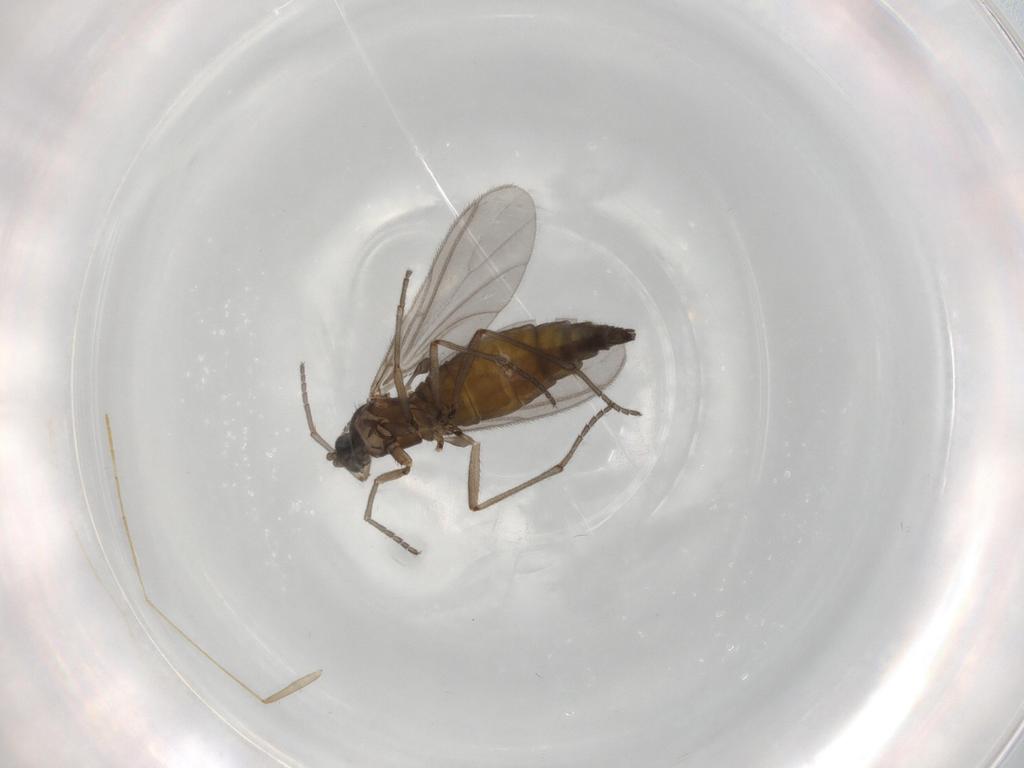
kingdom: Animalia
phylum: Arthropoda
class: Insecta
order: Diptera
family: Sciaridae
